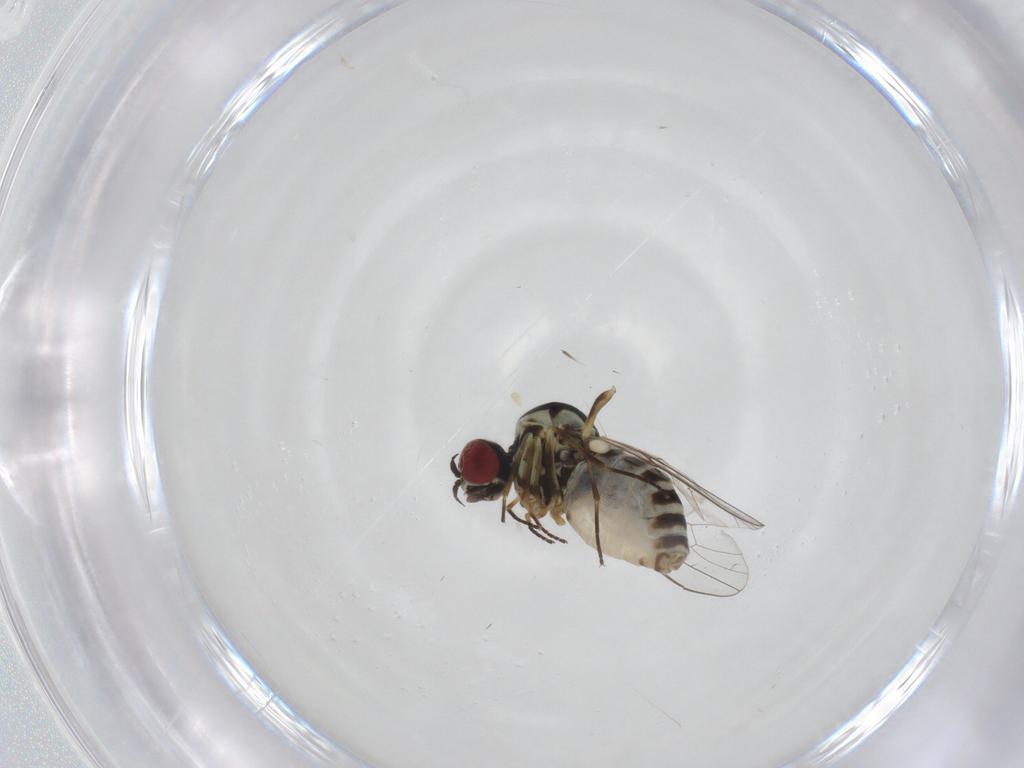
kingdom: Animalia
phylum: Arthropoda
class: Insecta
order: Diptera
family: Bombyliidae
